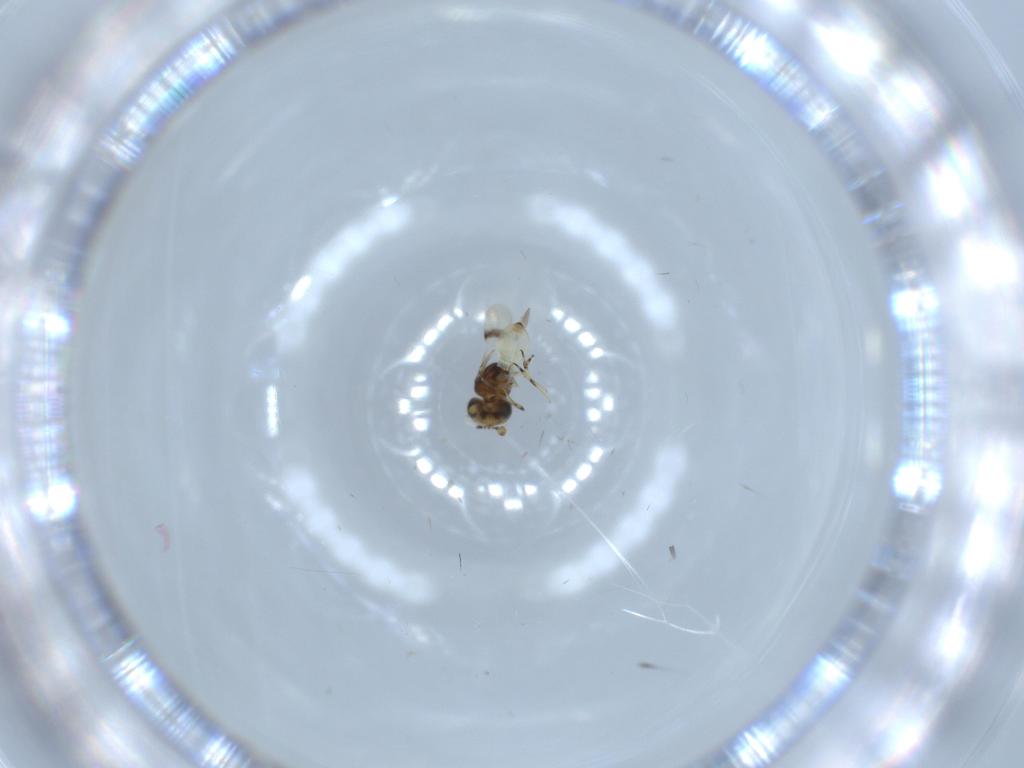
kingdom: Animalia
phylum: Arthropoda
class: Insecta
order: Hymenoptera
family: Scelionidae
